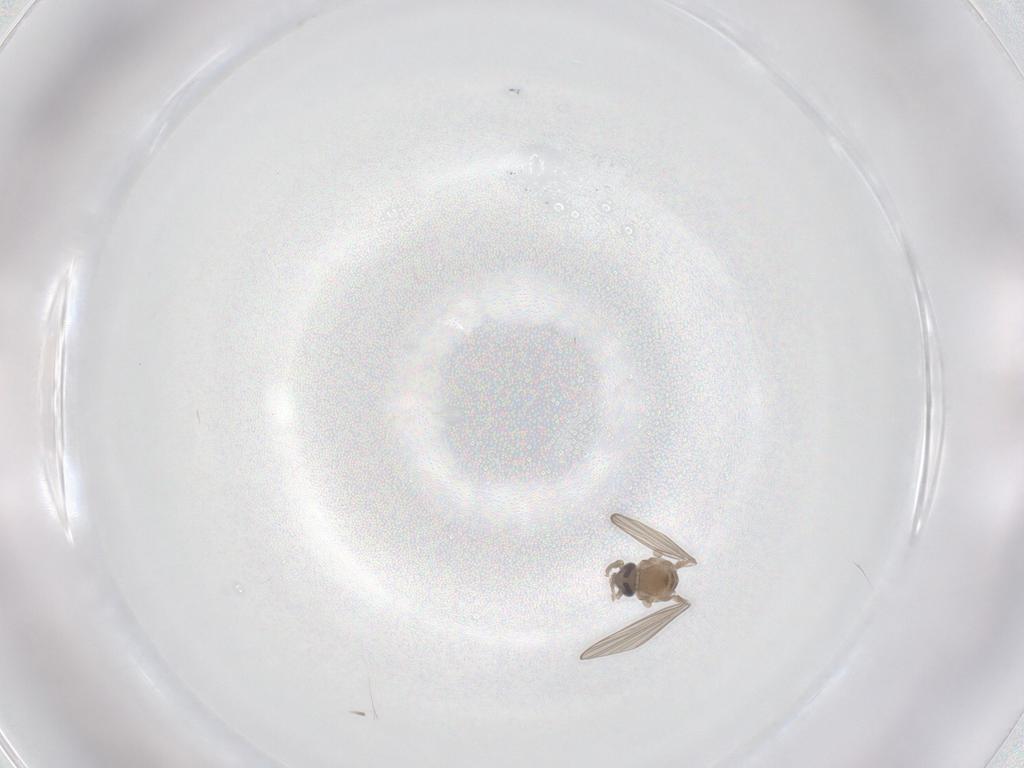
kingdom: Animalia
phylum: Arthropoda
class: Insecta
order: Diptera
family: Psychodidae
